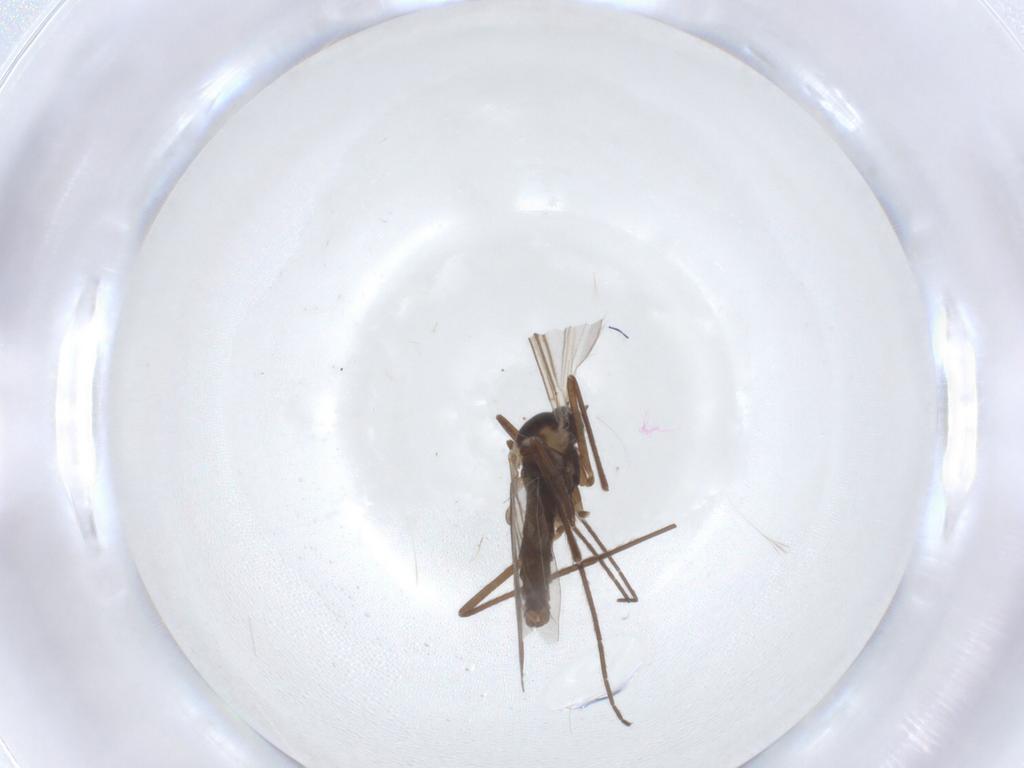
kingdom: Animalia
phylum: Arthropoda
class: Insecta
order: Diptera
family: Cecidomyiidae
